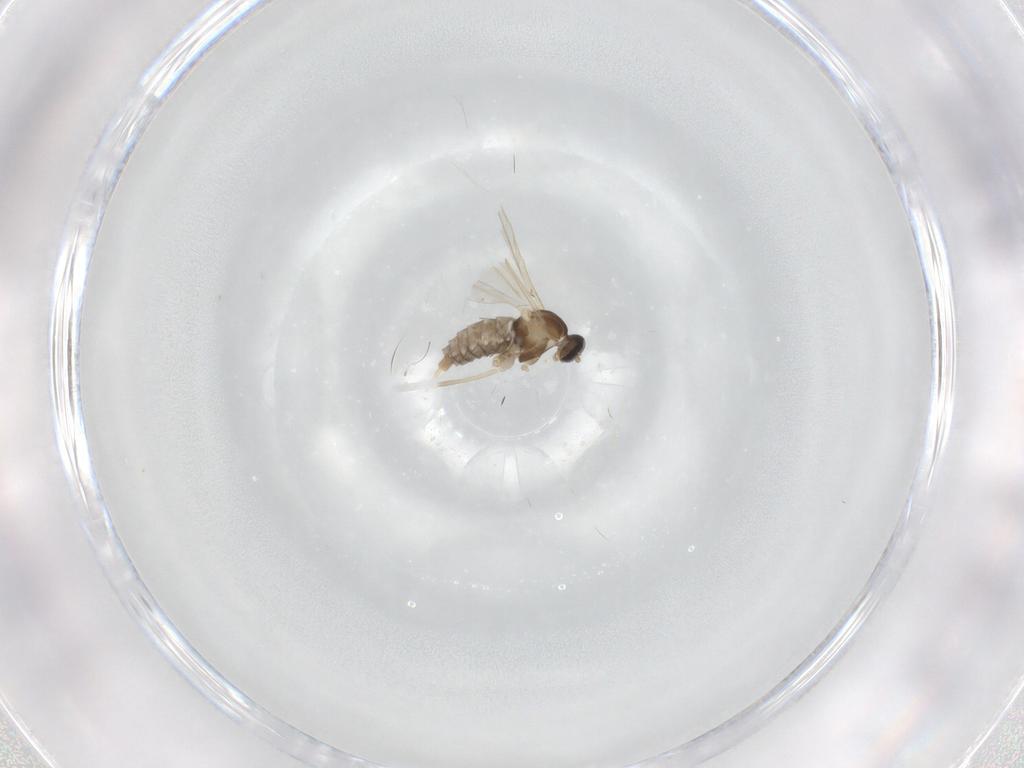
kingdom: Animalia
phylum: Arthropoda
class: Insecta
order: Diptera
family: Cecidomyiidae
